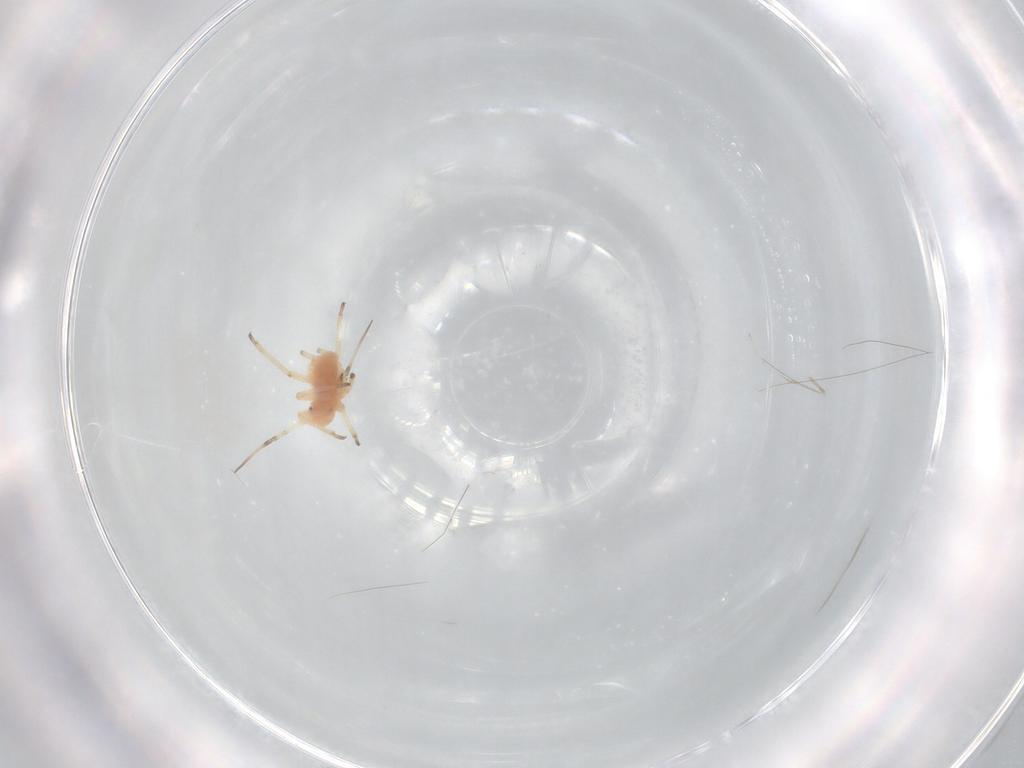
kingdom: Animalia
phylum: Arthropoda
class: Insecta
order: Hemiptera
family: Aphididae
